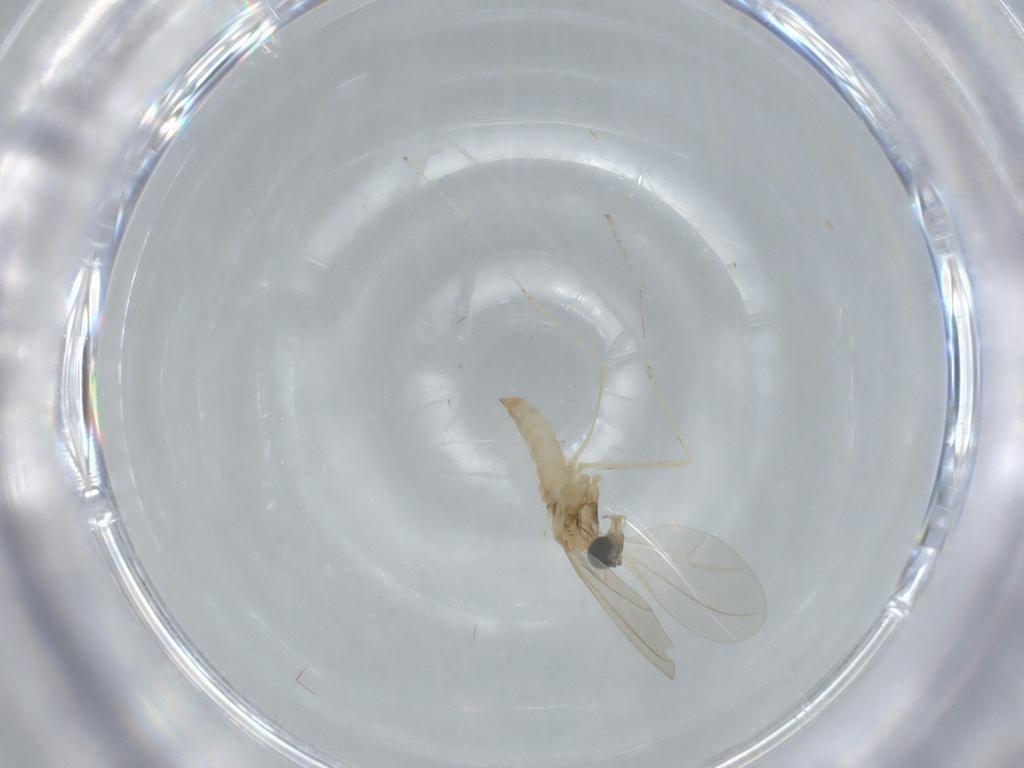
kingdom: Animalia
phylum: Arthropoda
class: Insecta
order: Diptera
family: Cecidomyiidae
